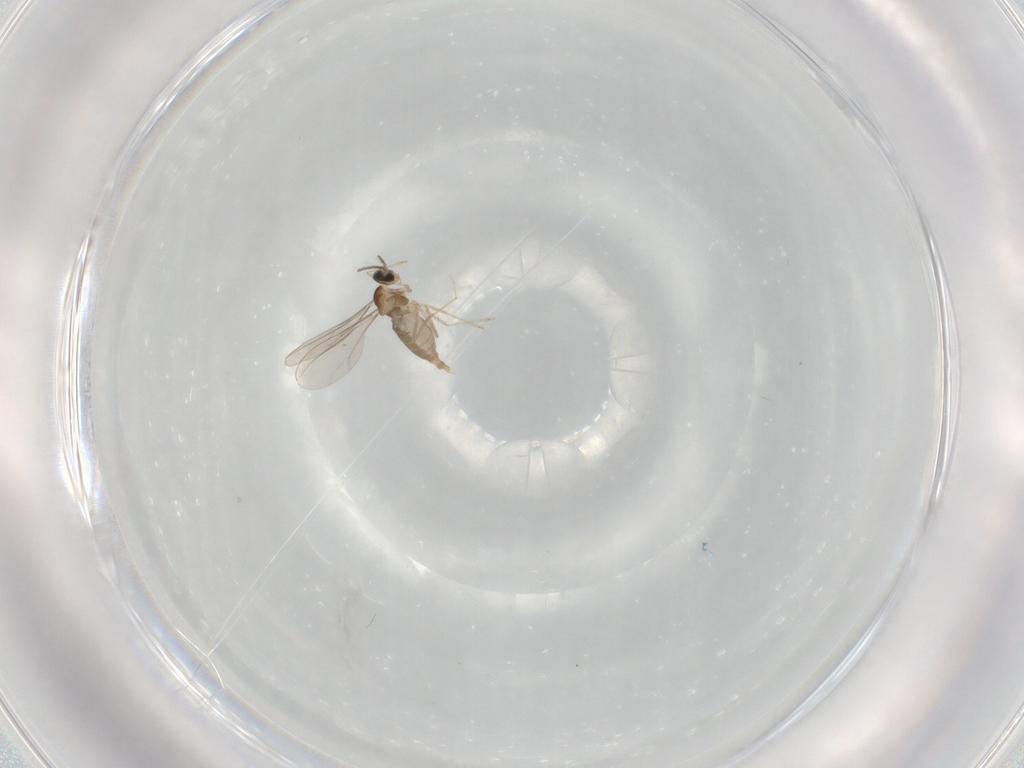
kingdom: Animalia
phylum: Arthropoda
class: Insecta
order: Diptera
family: Cecidomyiidae
